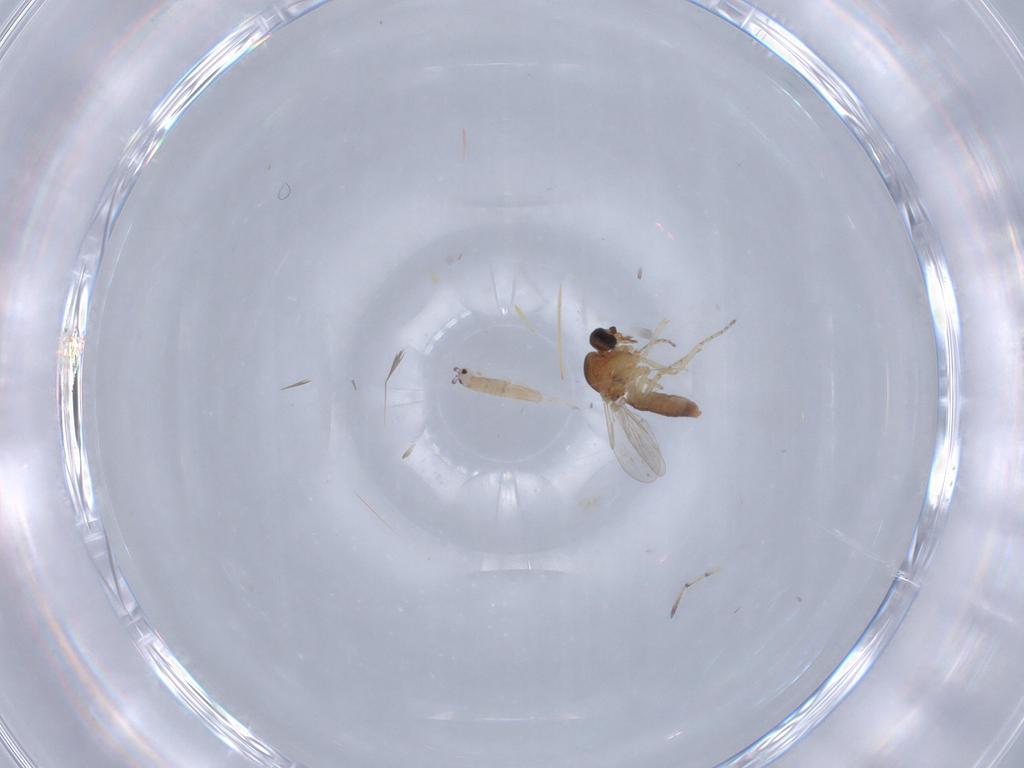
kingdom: Animalia
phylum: Arthropoda
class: Insecta
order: Diptera
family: Ceratopogonidae
